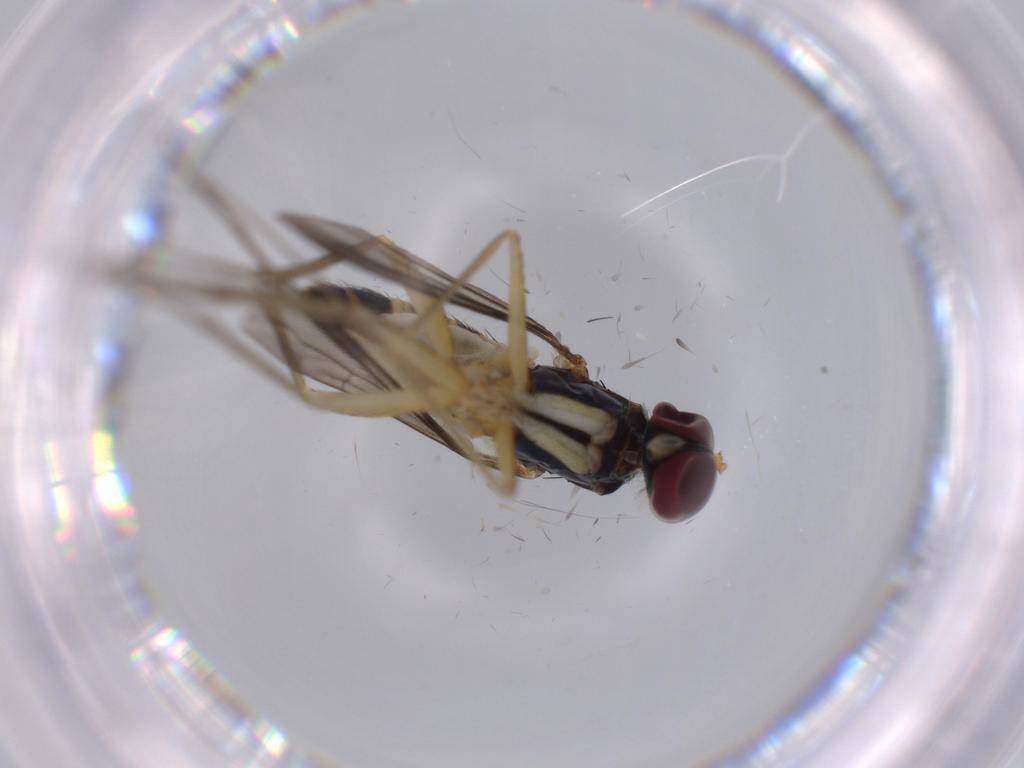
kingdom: Animalia
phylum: Arthropoda
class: Insecta
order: Diptera
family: Dolichopodidae
